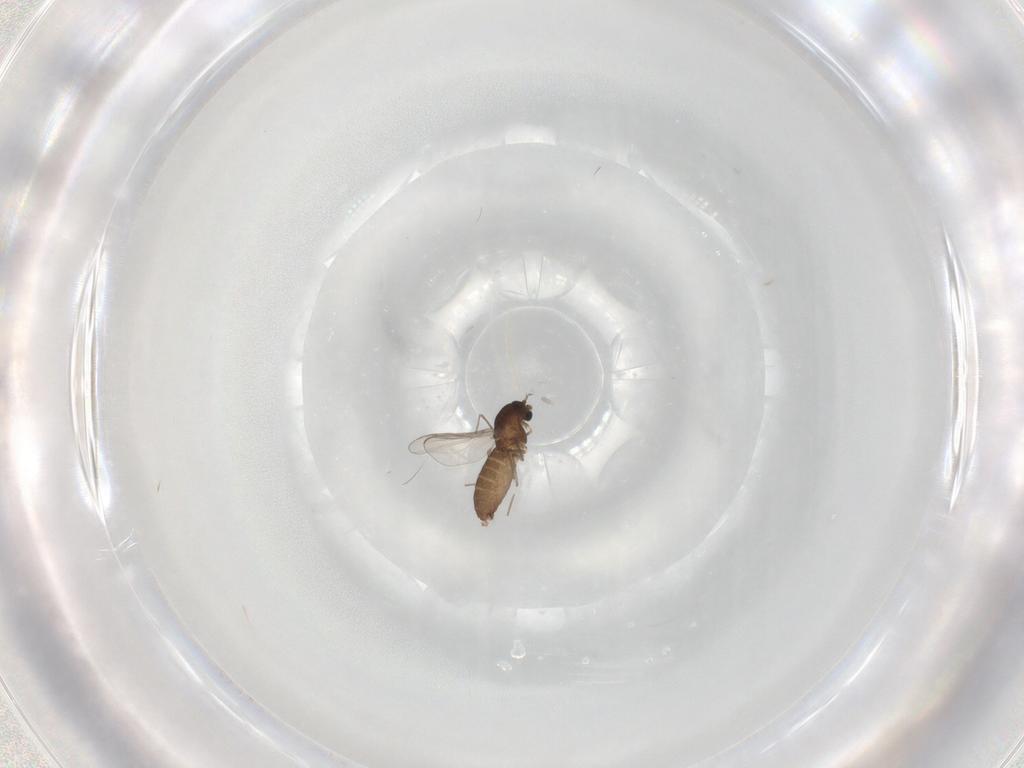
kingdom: Animalia
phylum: Arthropoda
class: Insecta
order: Diptera
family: Chironomidae
